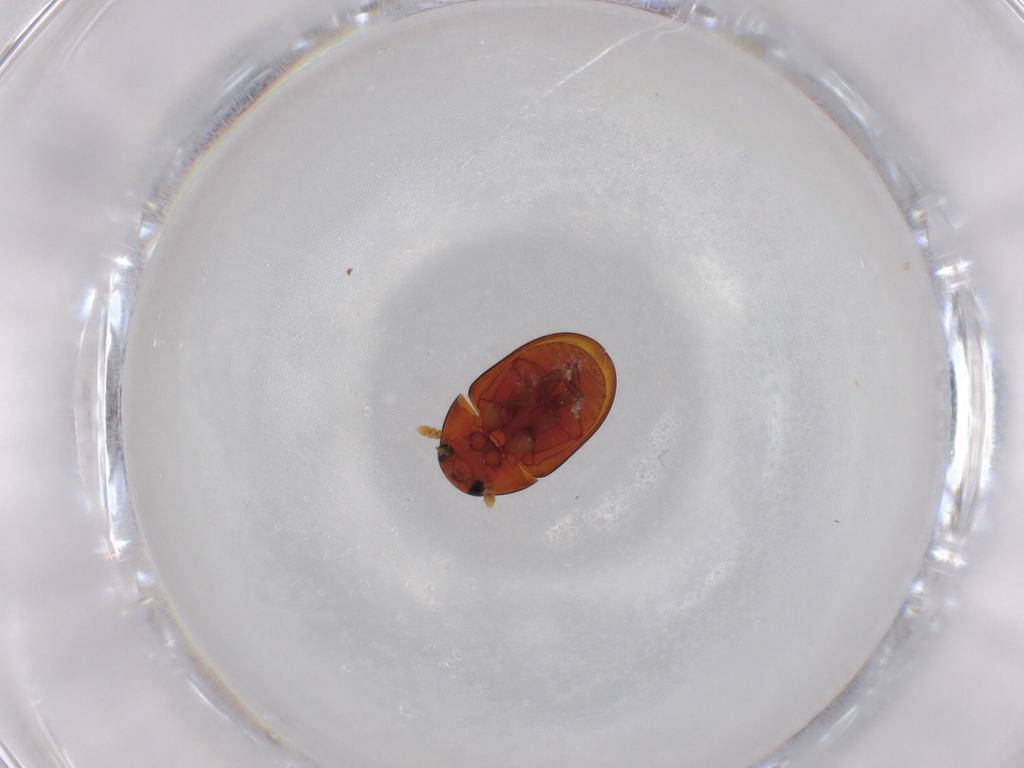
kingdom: Animalia
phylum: Arthropoda
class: Insecta
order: Coleoptera
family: Phalacridae
